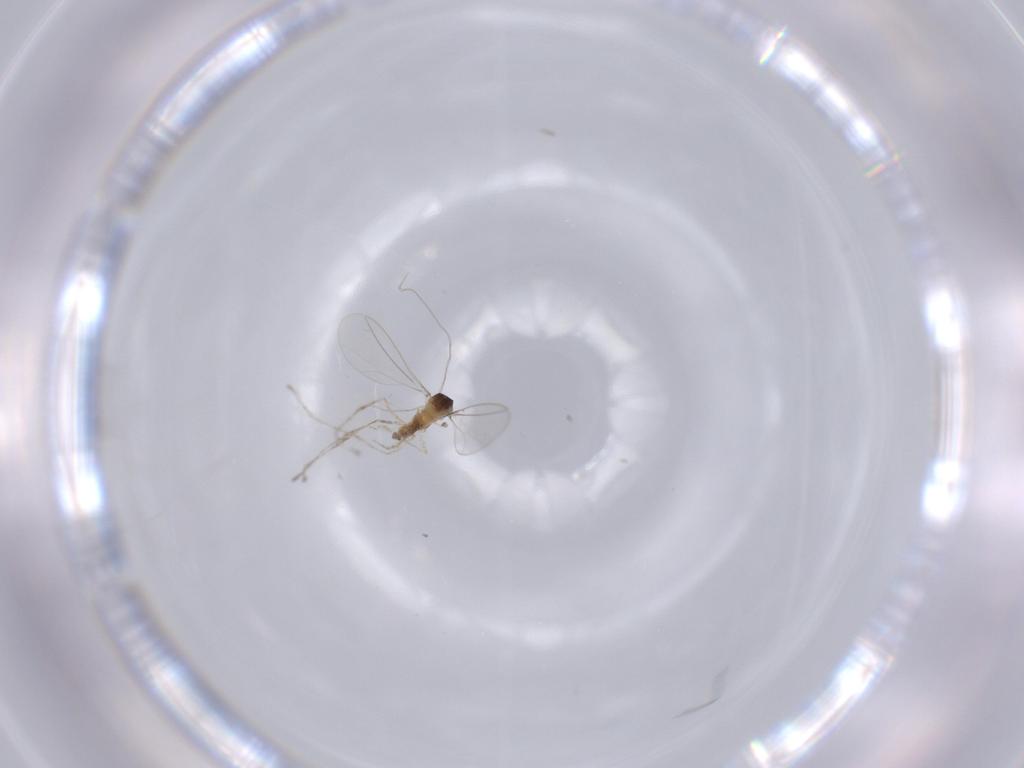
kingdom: Animalia
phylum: Arthropoda
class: Insecta
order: Diptera
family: Cecidomyiidae
